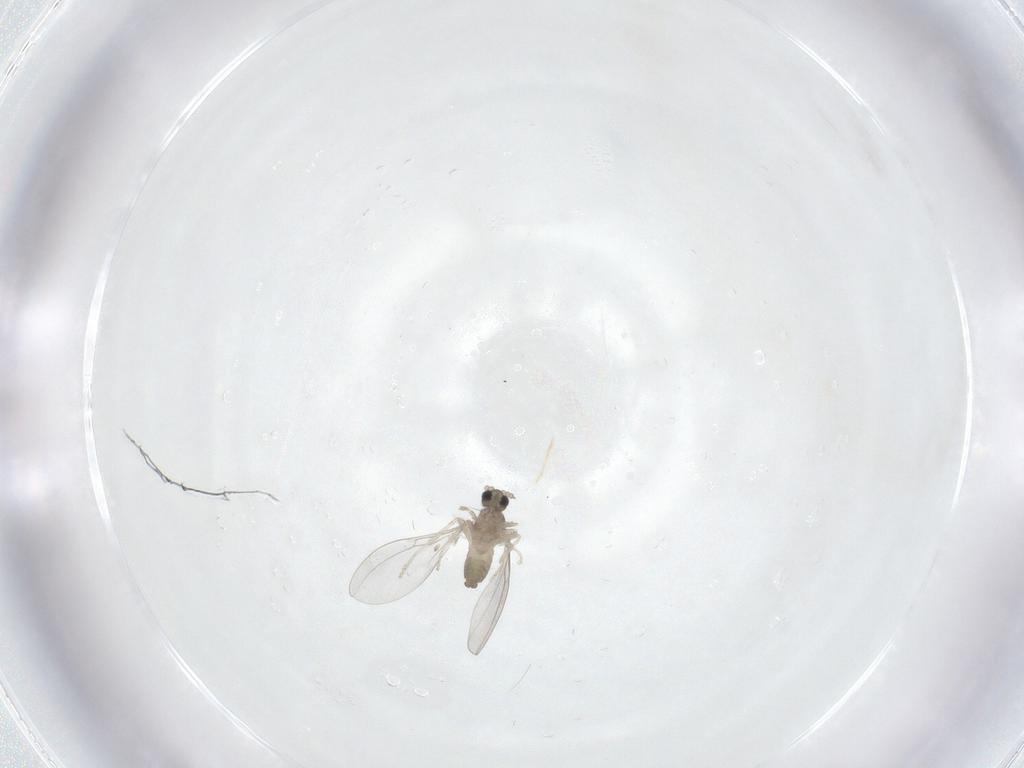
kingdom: Animalia
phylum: Arthropoda
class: Insecta
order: Diptera
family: Cecidomyiidae
